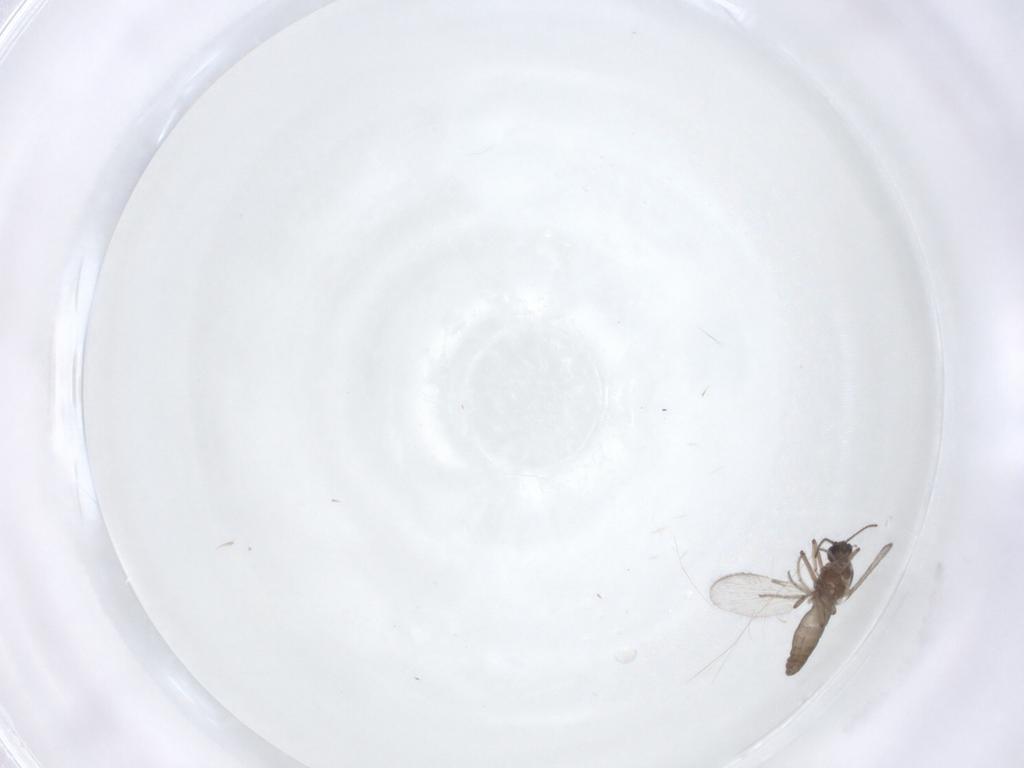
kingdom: Animalia
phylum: Arthropoda
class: Insecta
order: Diptera
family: Ceratopogonidae
